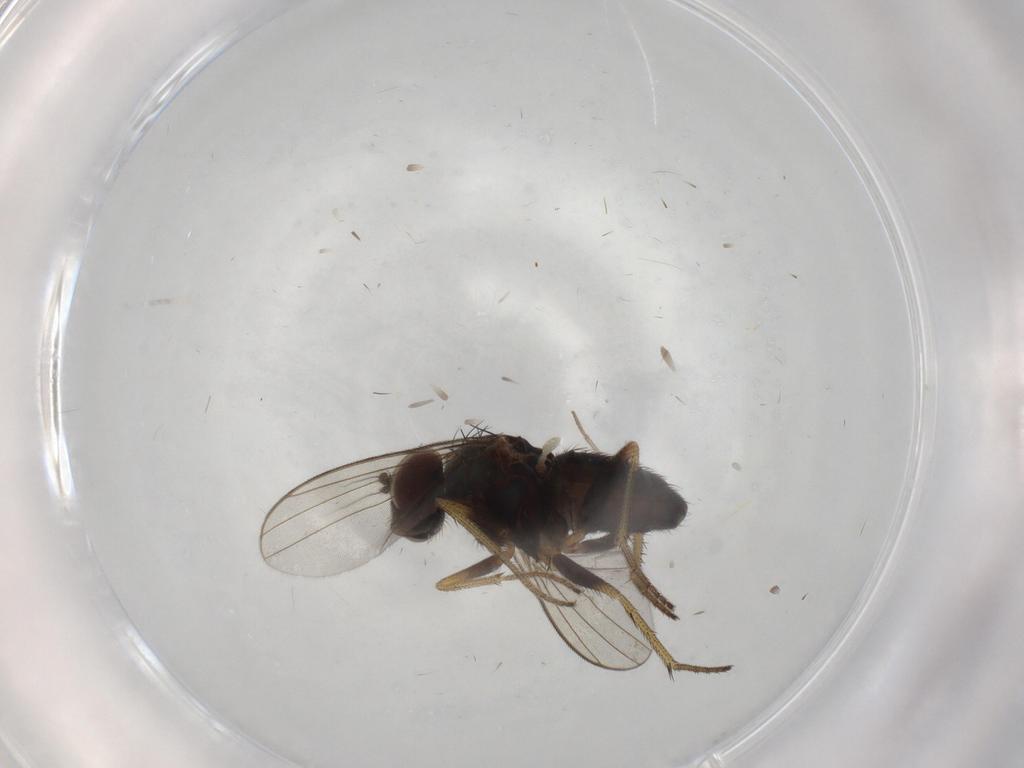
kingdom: Animalia
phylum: Arthropoda
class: Insecta
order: Diptera
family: Psychodidae
